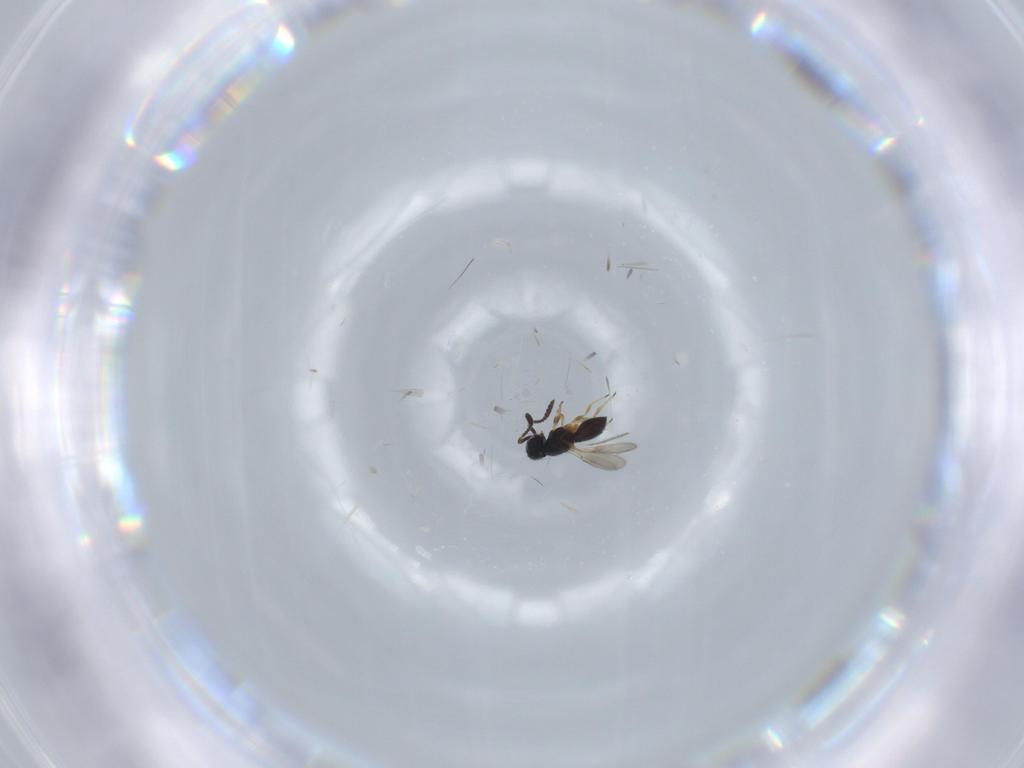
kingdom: Animalia
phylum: Arthropoda
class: Insecta
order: Hymenoptera
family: Scelionidae
